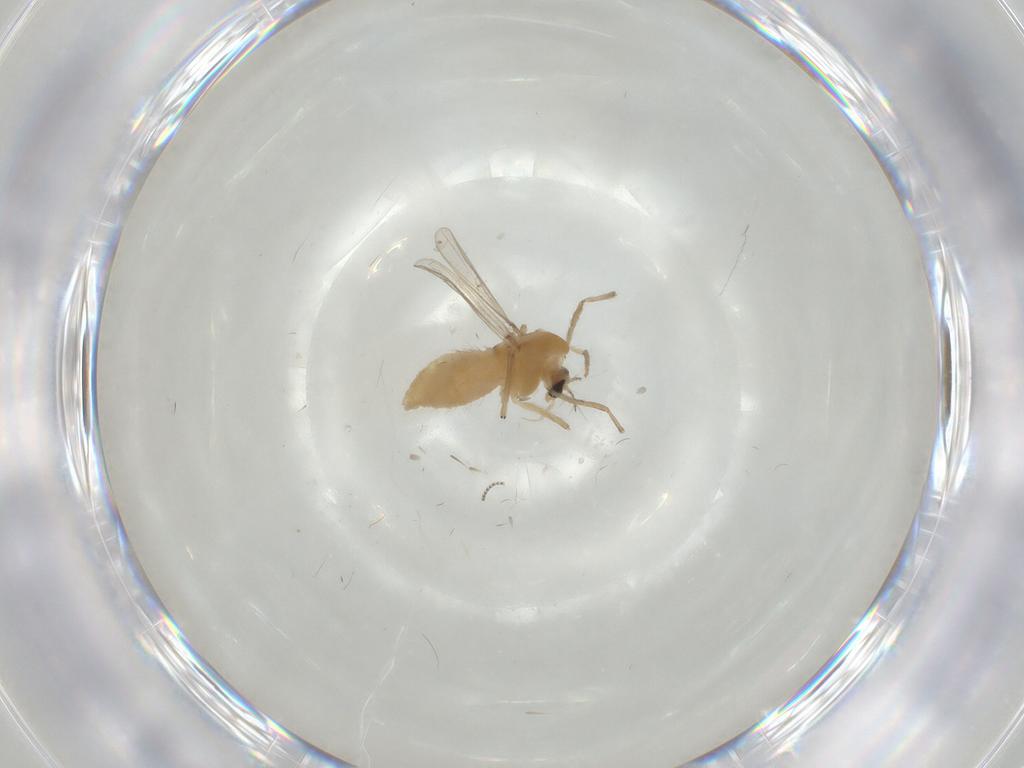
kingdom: Animalia
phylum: Arthropoda
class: Insecta
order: Diptera
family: Chironomidae
